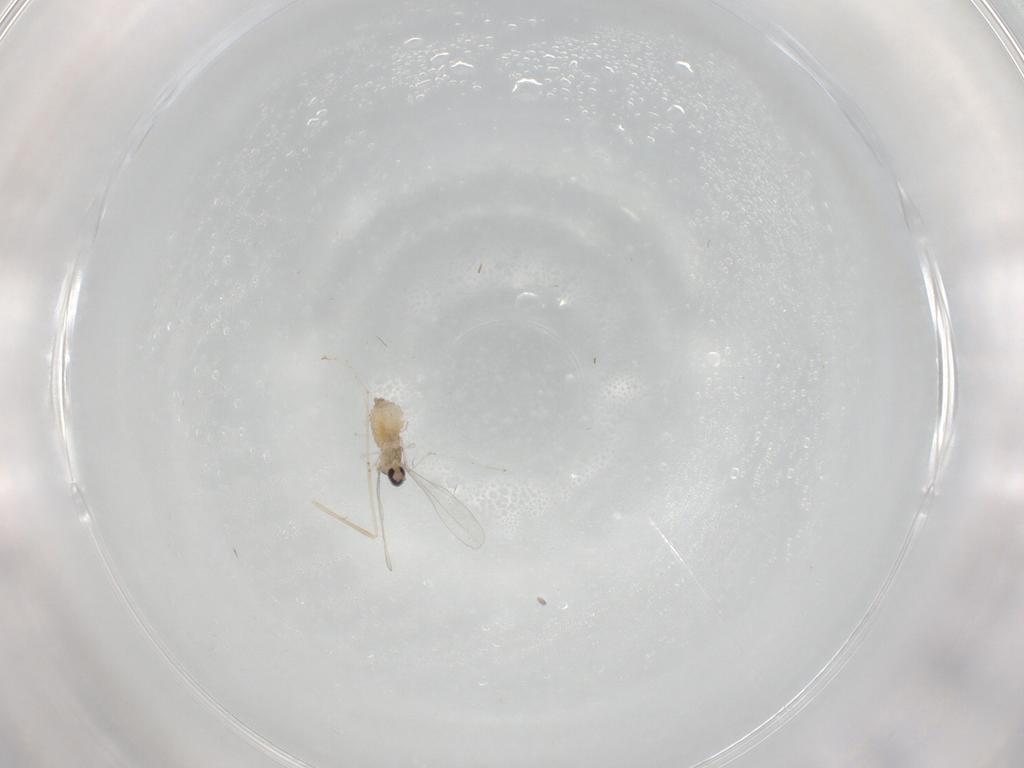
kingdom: Animalia
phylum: Arthropoda
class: Insecta
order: Diptera
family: Cecidomyiidae
